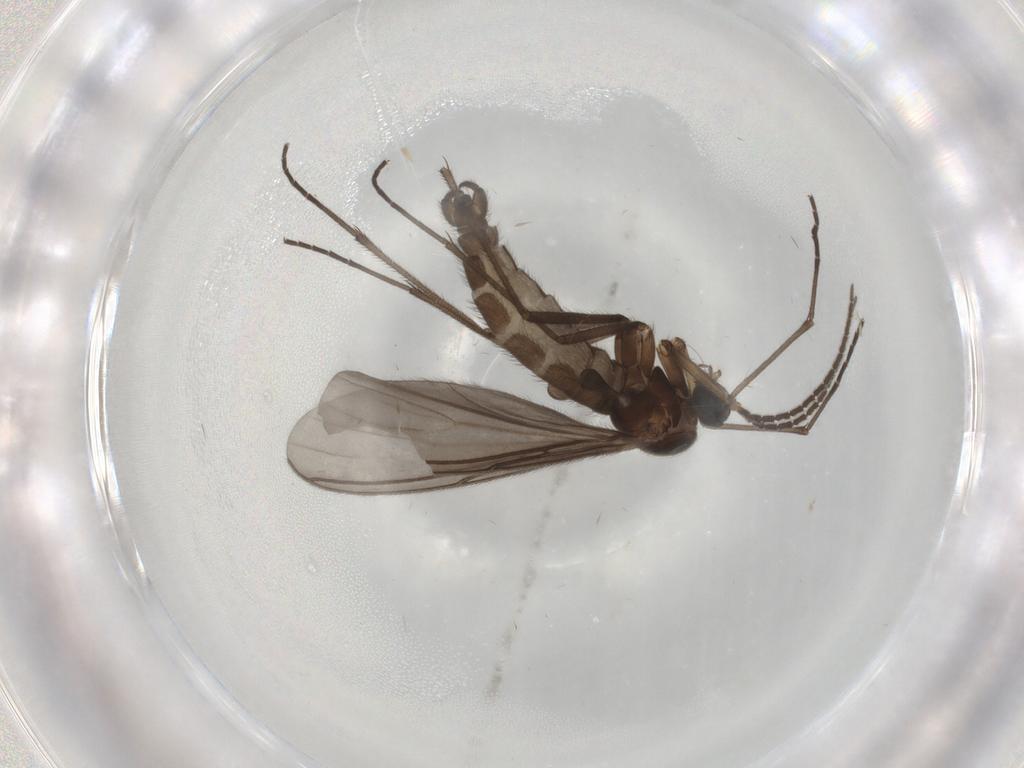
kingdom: Animalia
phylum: Arthropoda
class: Insecta
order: Diptera
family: Sciaridae
